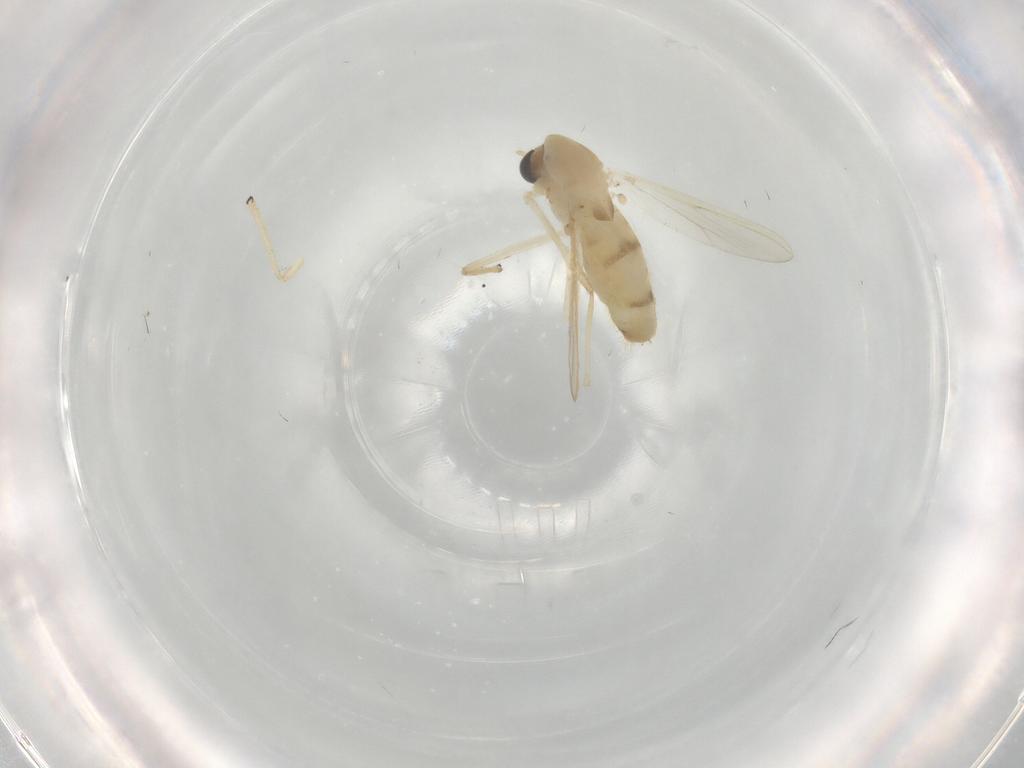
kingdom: Animalia
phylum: Arthropoda
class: Insecta
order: Diptera
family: Chironomidae
